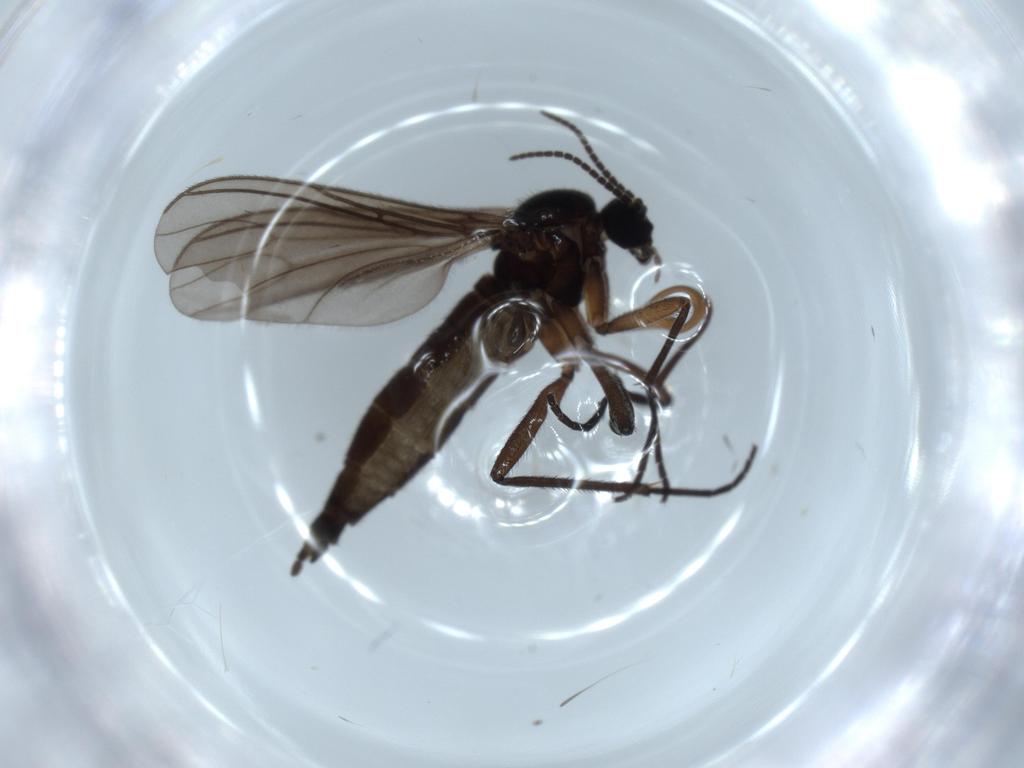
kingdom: Animalia
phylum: Arthropoda
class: Insecta
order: Diptera
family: Sciaridae
